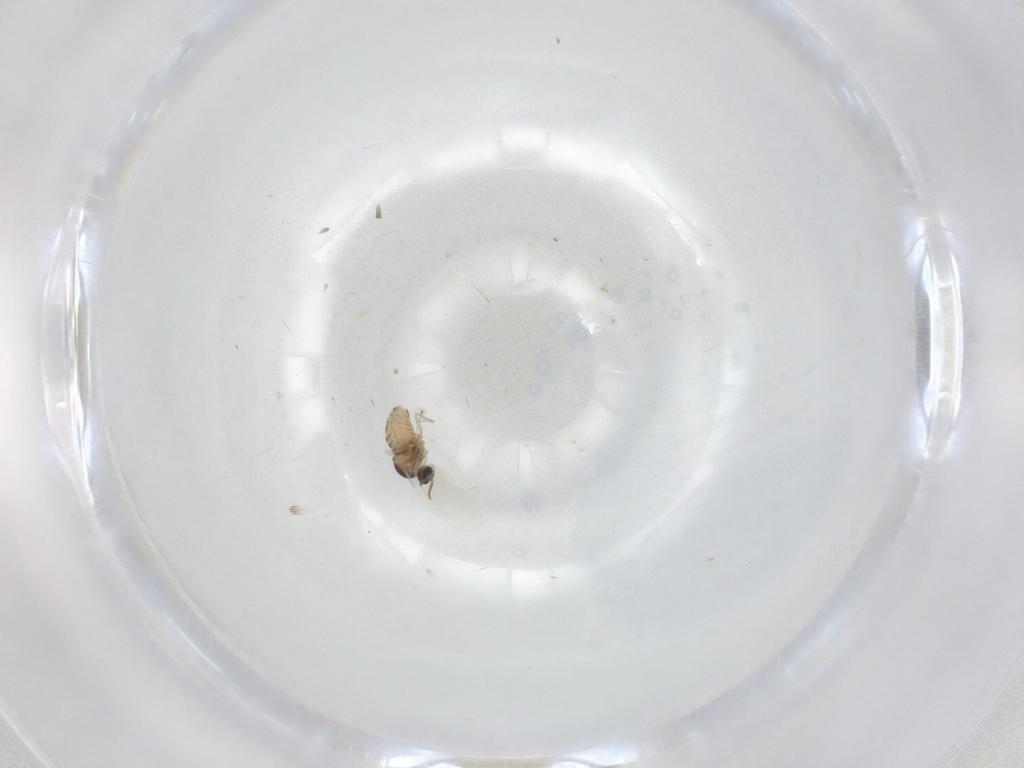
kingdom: Animalia
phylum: Arthropoda
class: Insecta
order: Diptera
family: Cecidomyiidae
